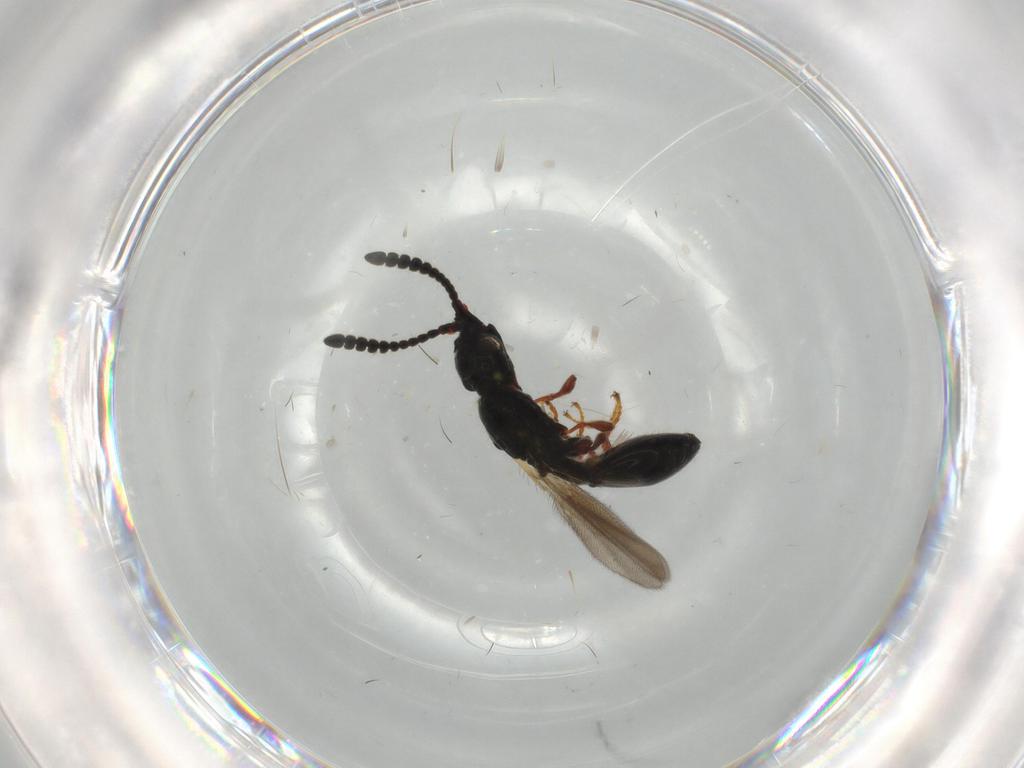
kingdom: Animalia
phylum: Arthropoda
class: Insecta
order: Hymenoptera
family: Diapriidae
